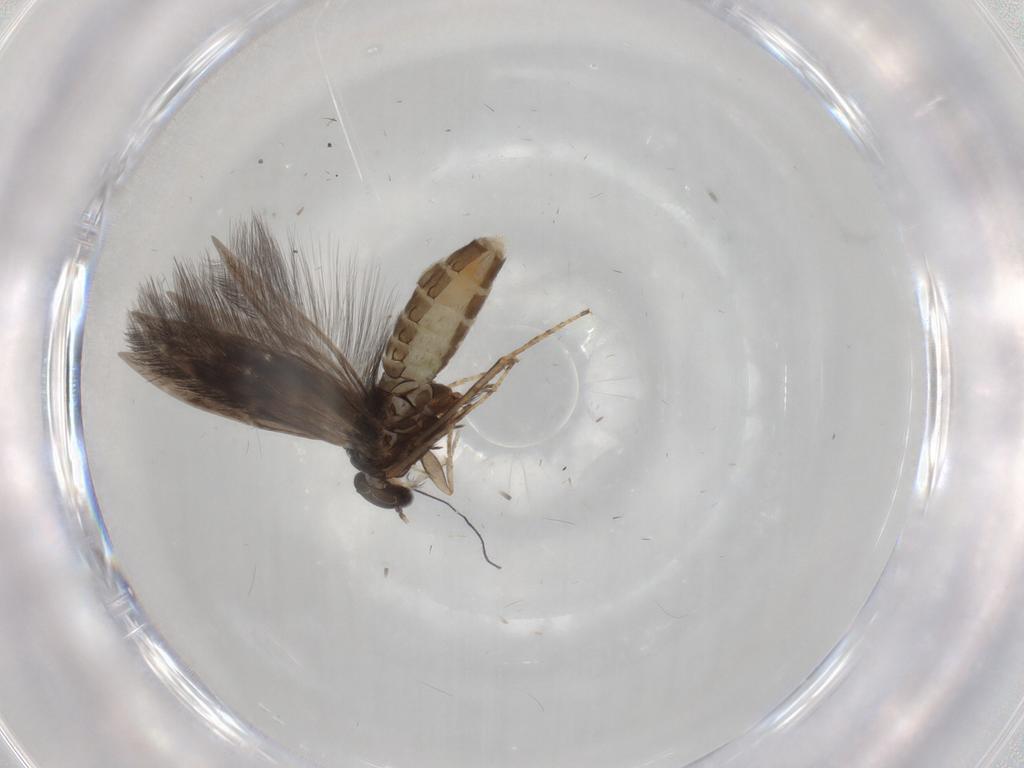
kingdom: Animalia
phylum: Arthropoda
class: Insecta
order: Trichoptera
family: Hydroptilidae
